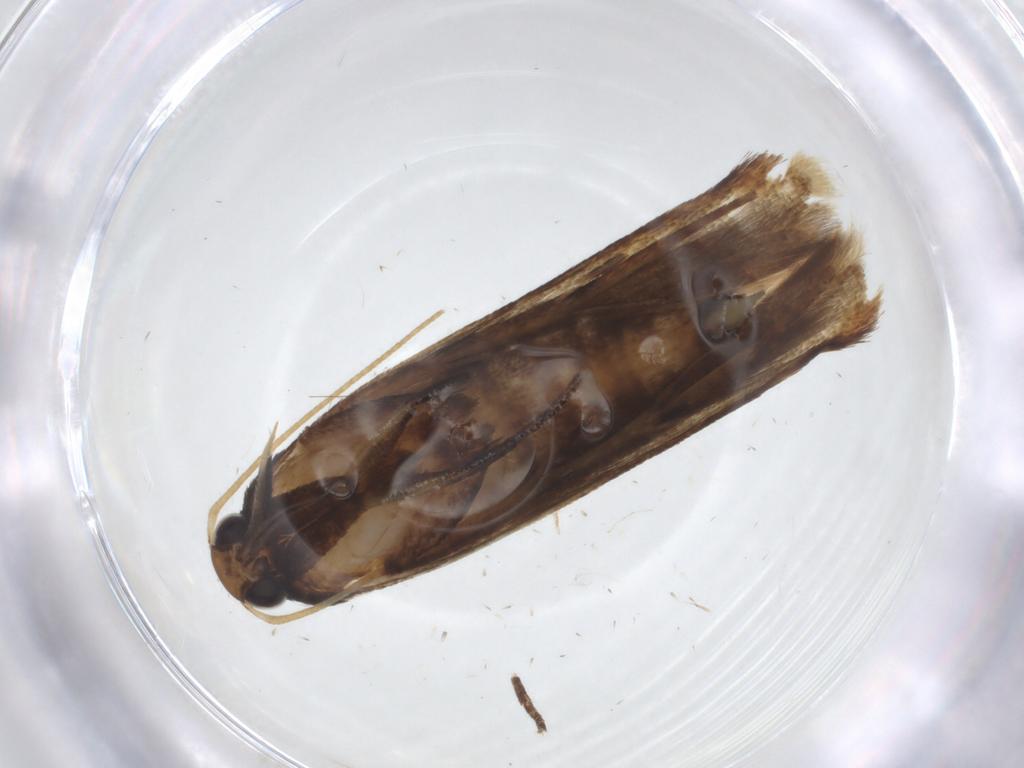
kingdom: Animalia
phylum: Arthropoda
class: Insecta
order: Lepidoptera
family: Gelechiidae
